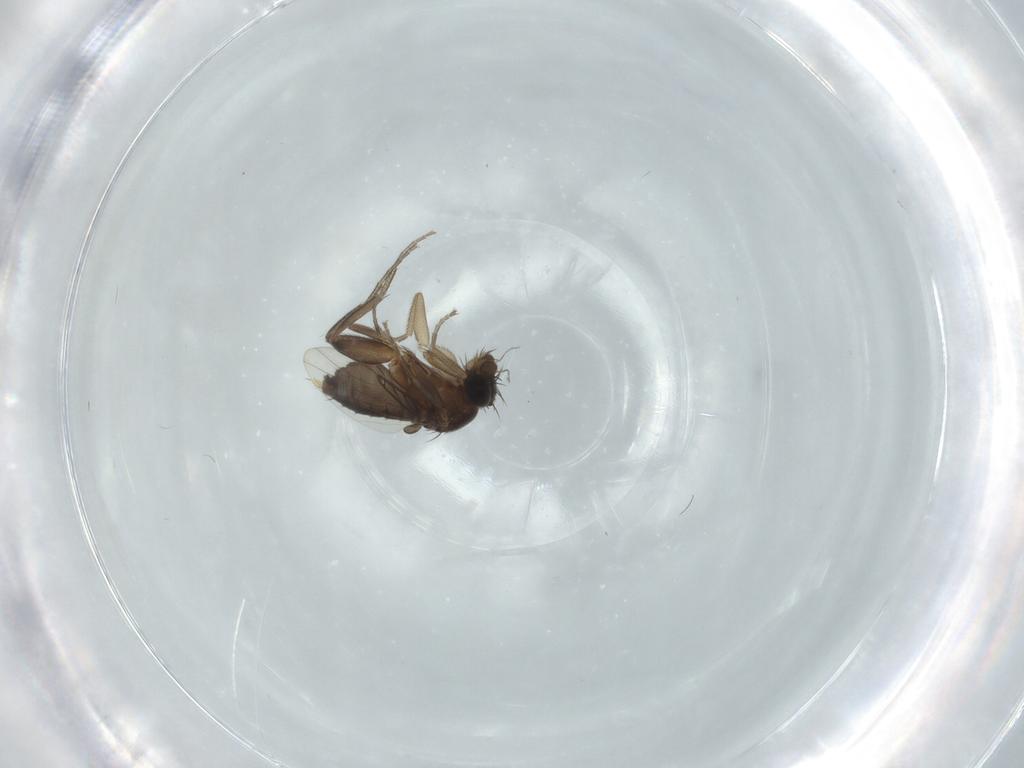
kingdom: Animalia
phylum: Arthropoda
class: Insecta
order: Diptera
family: Phoridae
